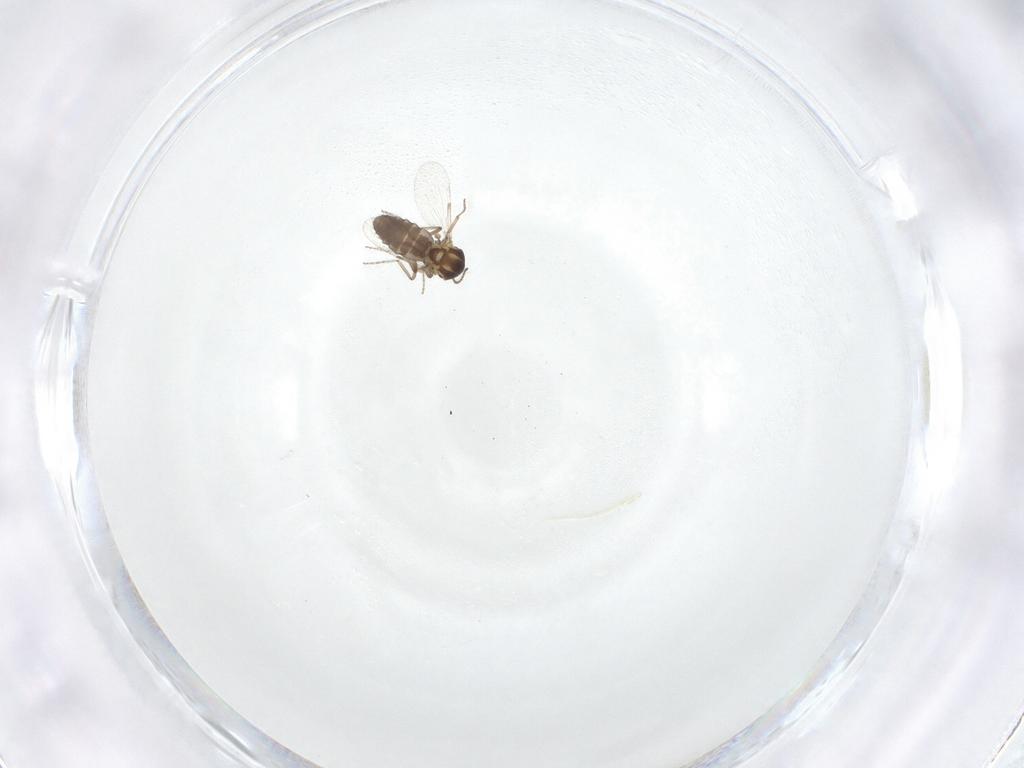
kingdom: Animalia
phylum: Arthropoda
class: Insecta
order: Diptera
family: Ceratopogonidae
